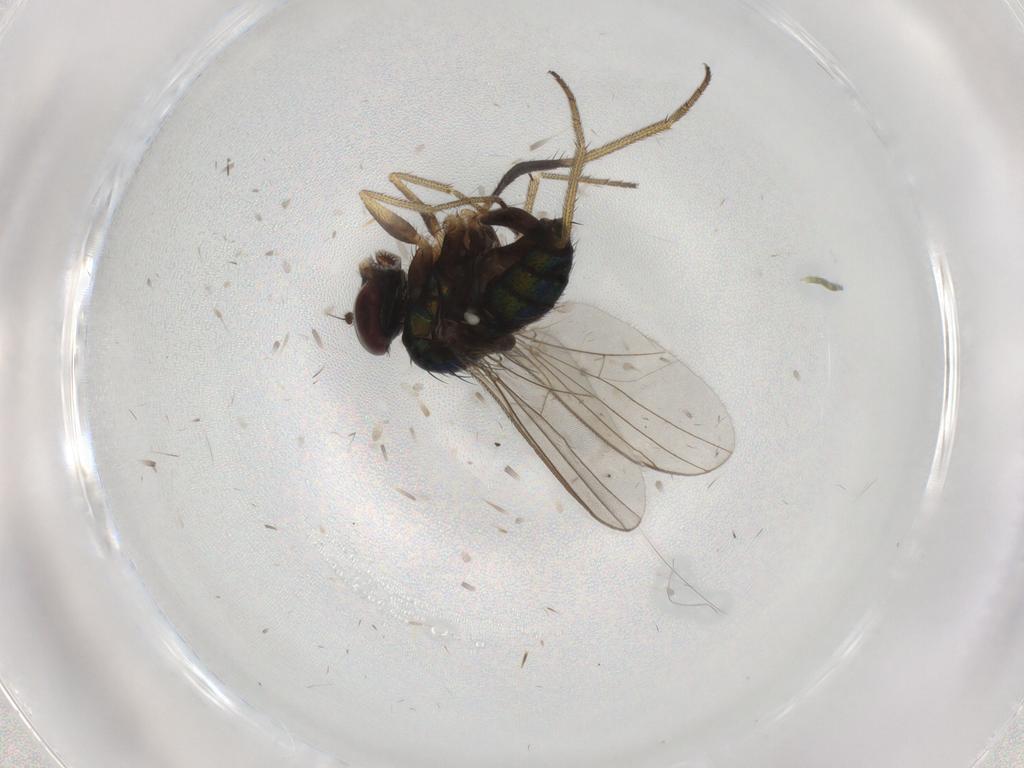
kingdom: Animalia
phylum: Arthropoda
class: Insecta
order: Diptera
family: Dolichopodidae
